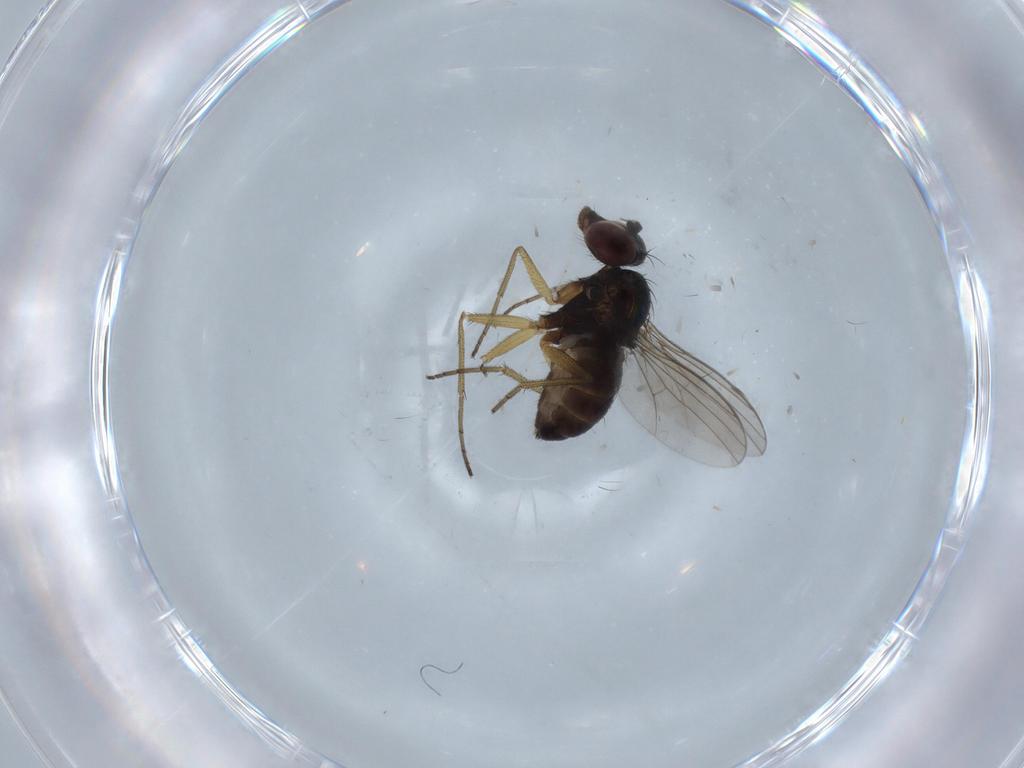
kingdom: Animalia
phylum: Arthropoda
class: Insecta
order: Diptera
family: Dolichopodidae
